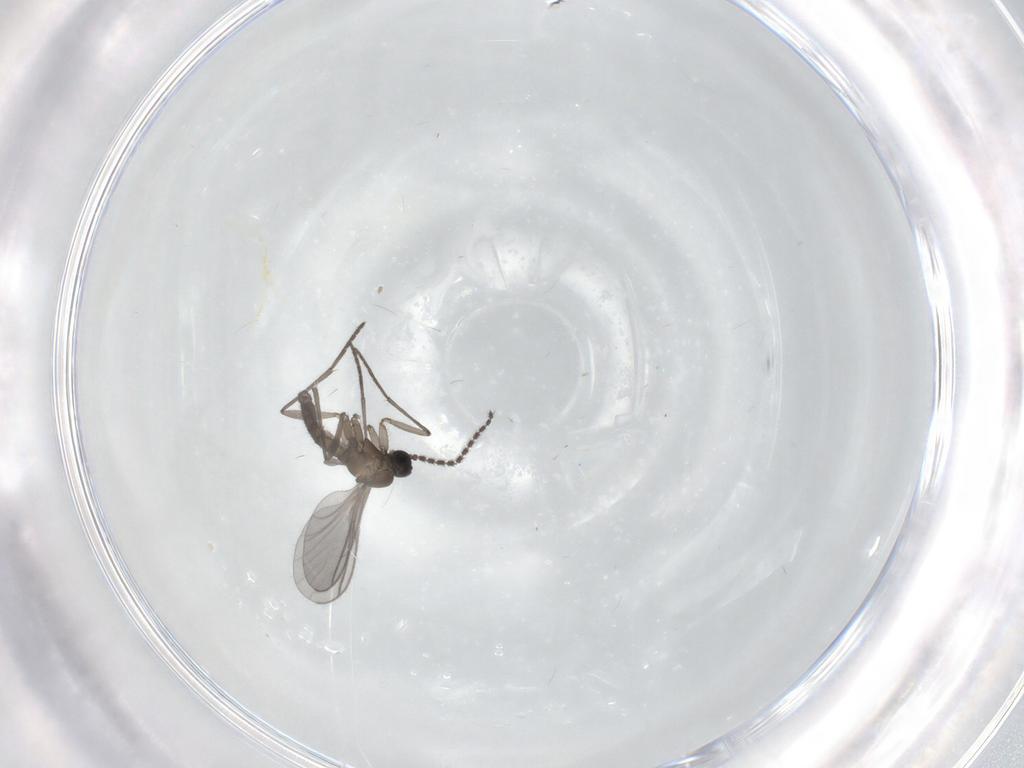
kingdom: Animalia
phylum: Arthropoda
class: Insecta
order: Diptera
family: Chironomidae
